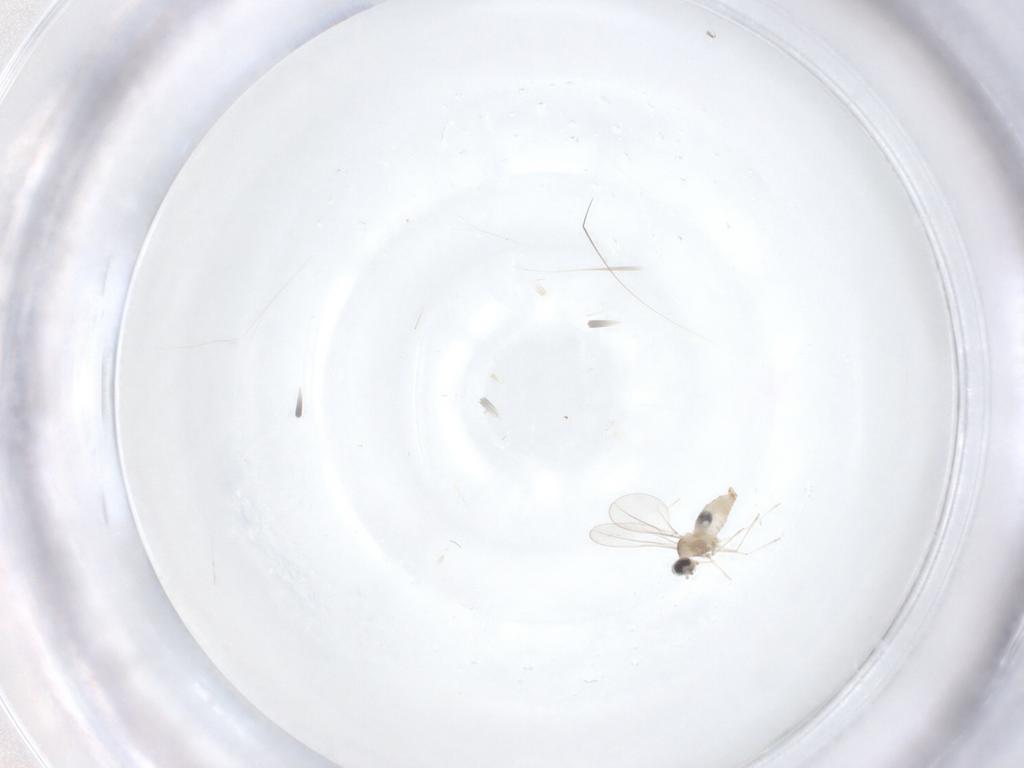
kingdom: Animalia
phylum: Arthropoda
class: Insecta
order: Diptera
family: Cecidomyiidae
